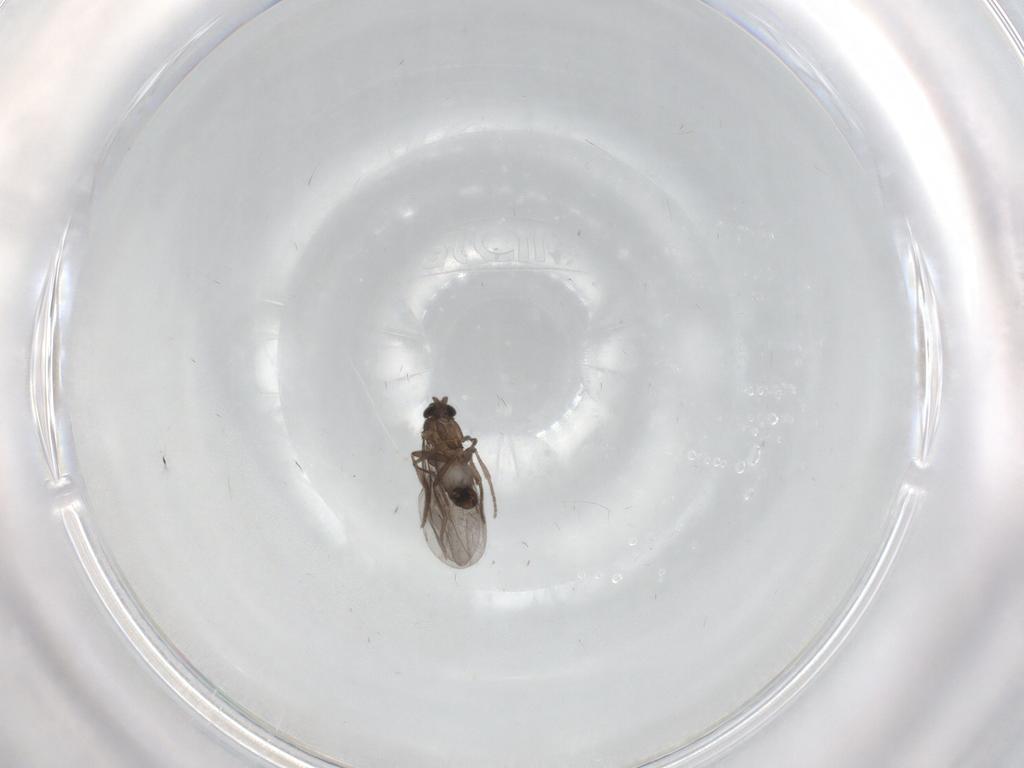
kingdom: Animalia
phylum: Arthropoda
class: Insecta
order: Diptera
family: Phoridae
